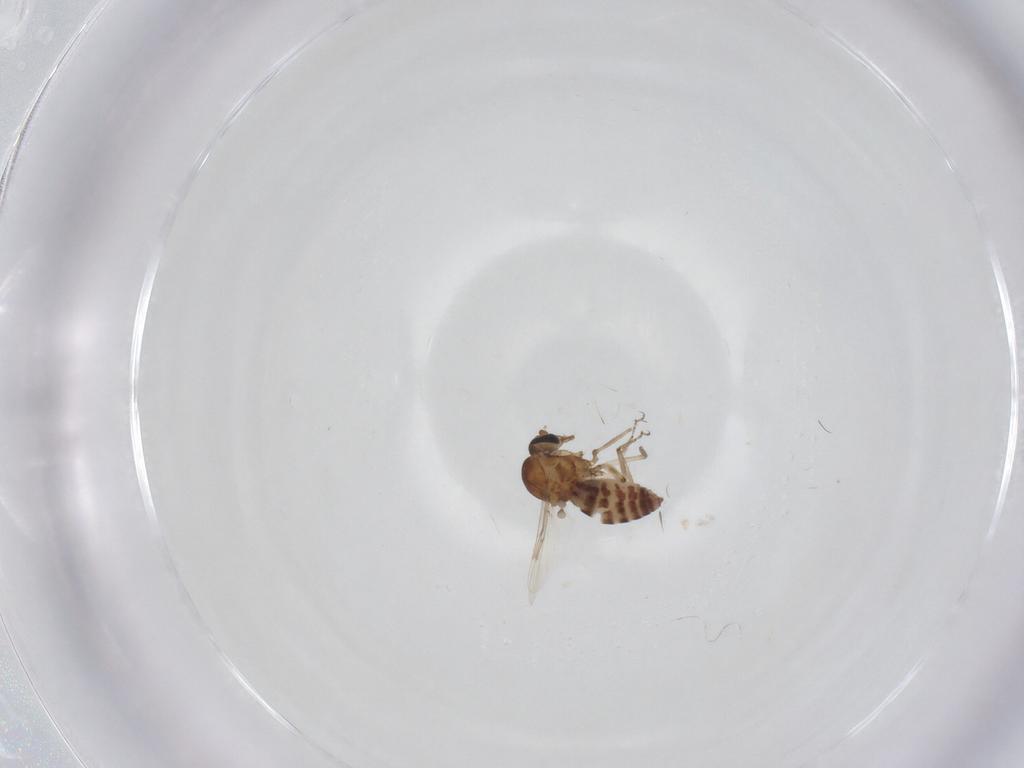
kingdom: Animalia
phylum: Arthropoda
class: Insecta
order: Diptera
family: Ceratopogonidae
